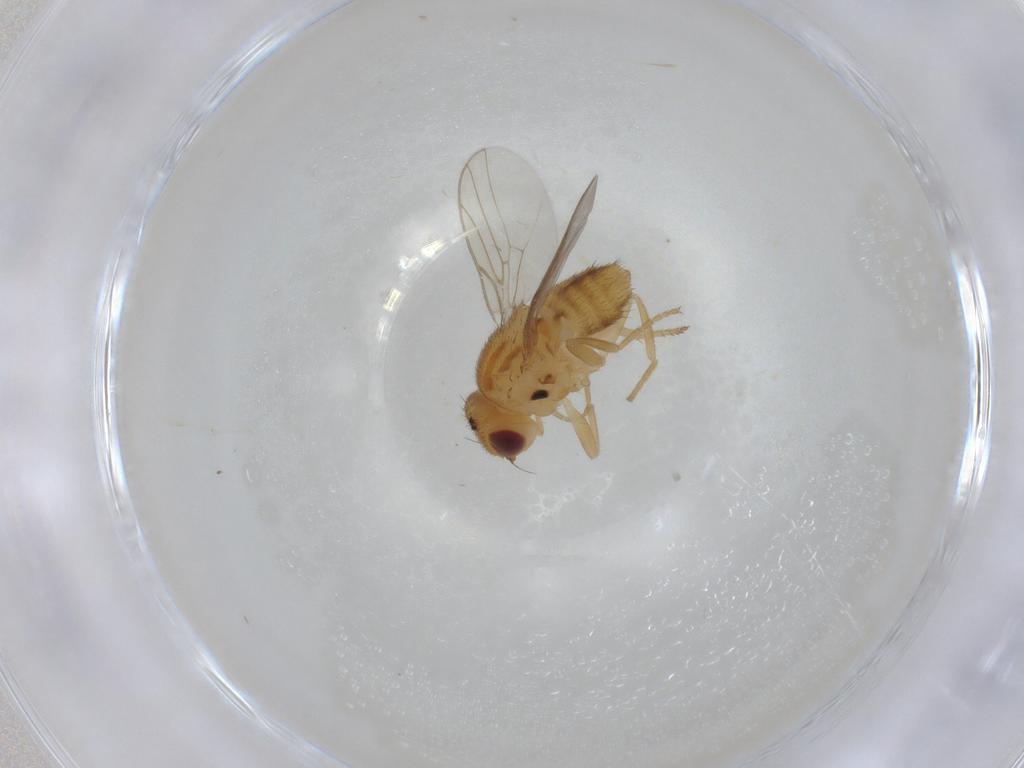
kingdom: Animalia
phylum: Arthropoda
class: Insecta
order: Diptera
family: Chloropidae
